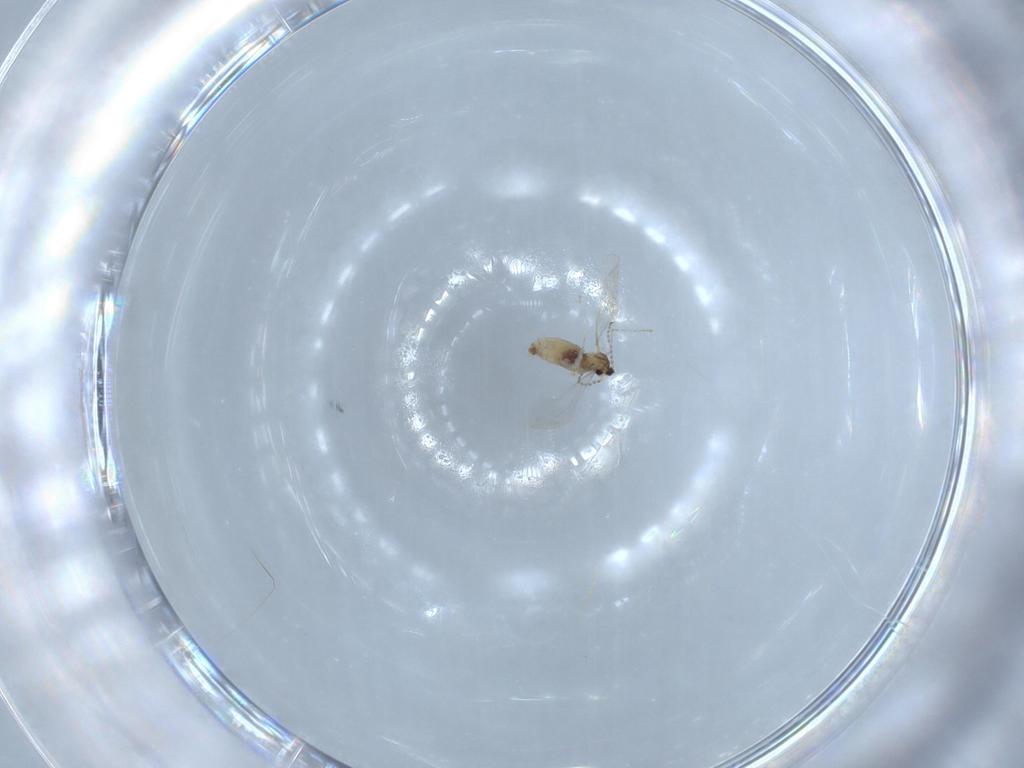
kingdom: Animalia
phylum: Arthropoda
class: Insecta
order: Diptera
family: Cecidomyiidae
